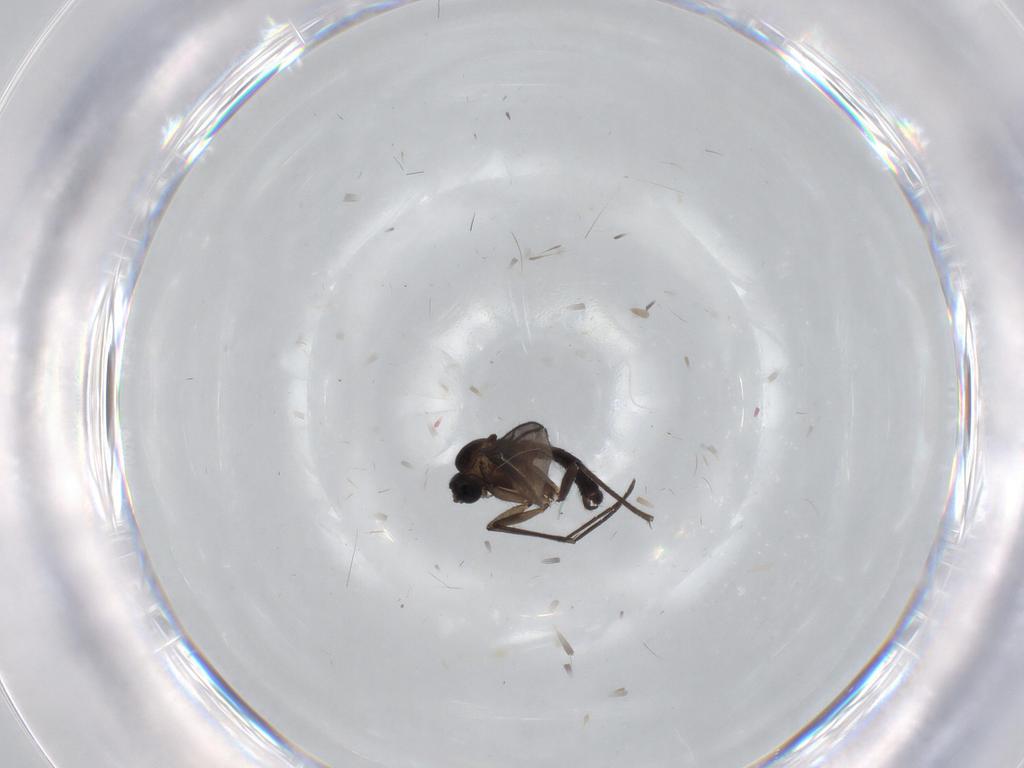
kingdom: Animalia
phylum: Arthropoda
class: Insecta
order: Diptera
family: Sciaridae
